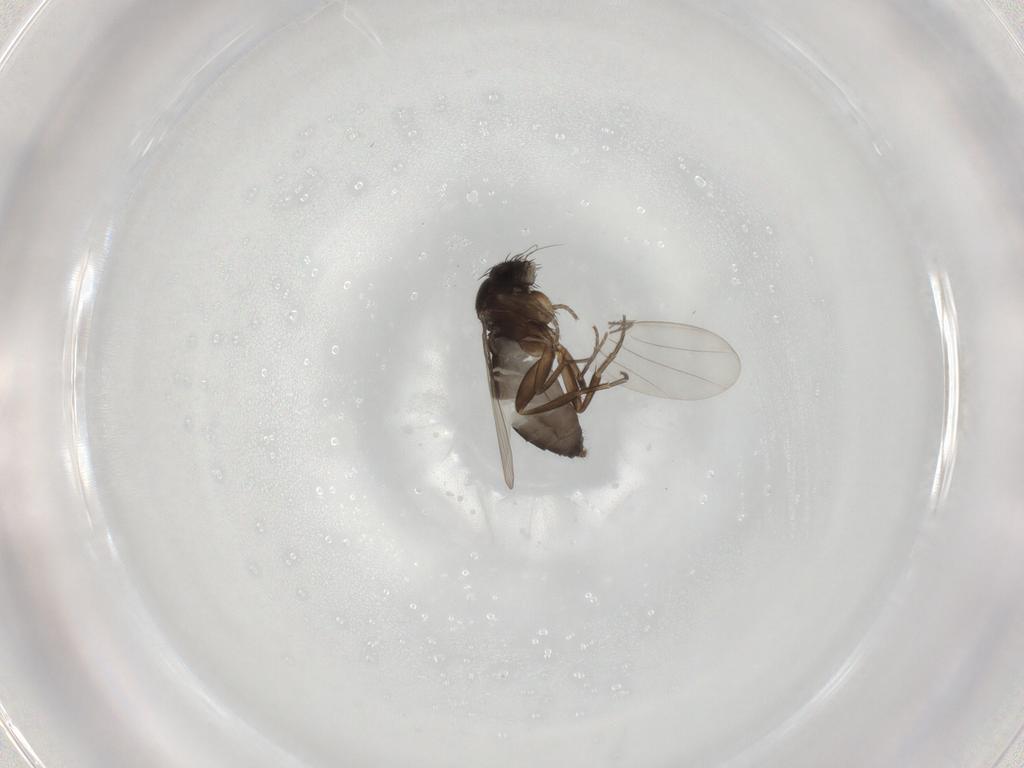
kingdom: Animalia
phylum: Arthropoda
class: Insecta
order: Diptera
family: Phoridae
